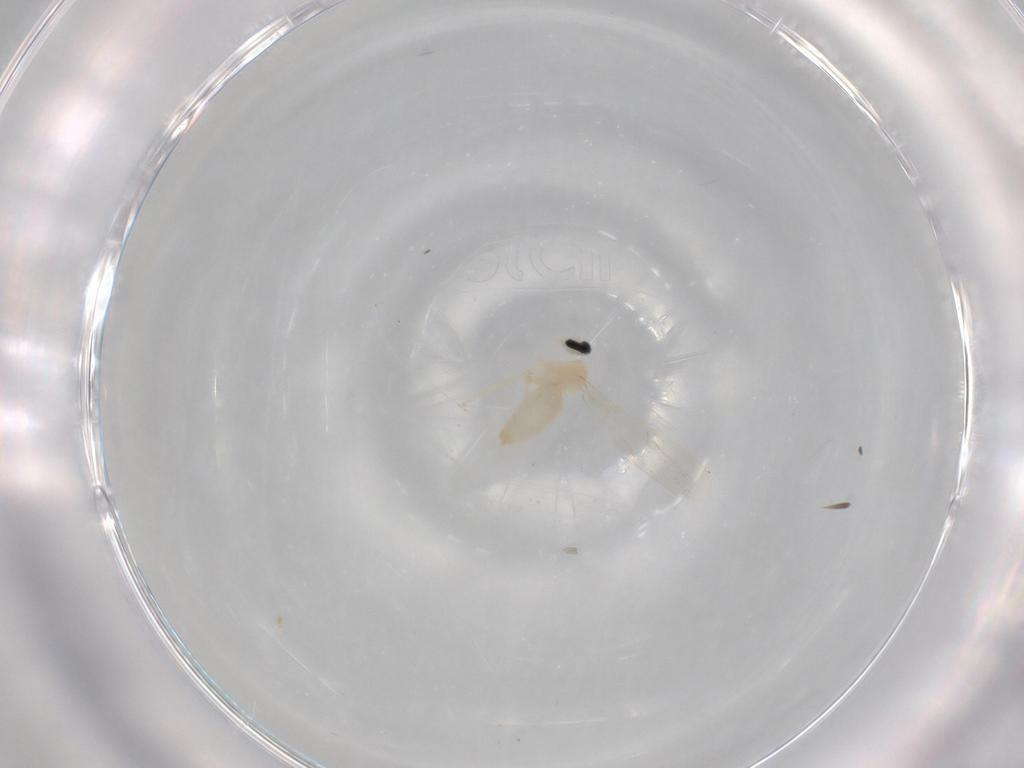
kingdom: Animalia
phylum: Arthropoda
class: Insecta
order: Diptera
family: Cecidomyiidae
